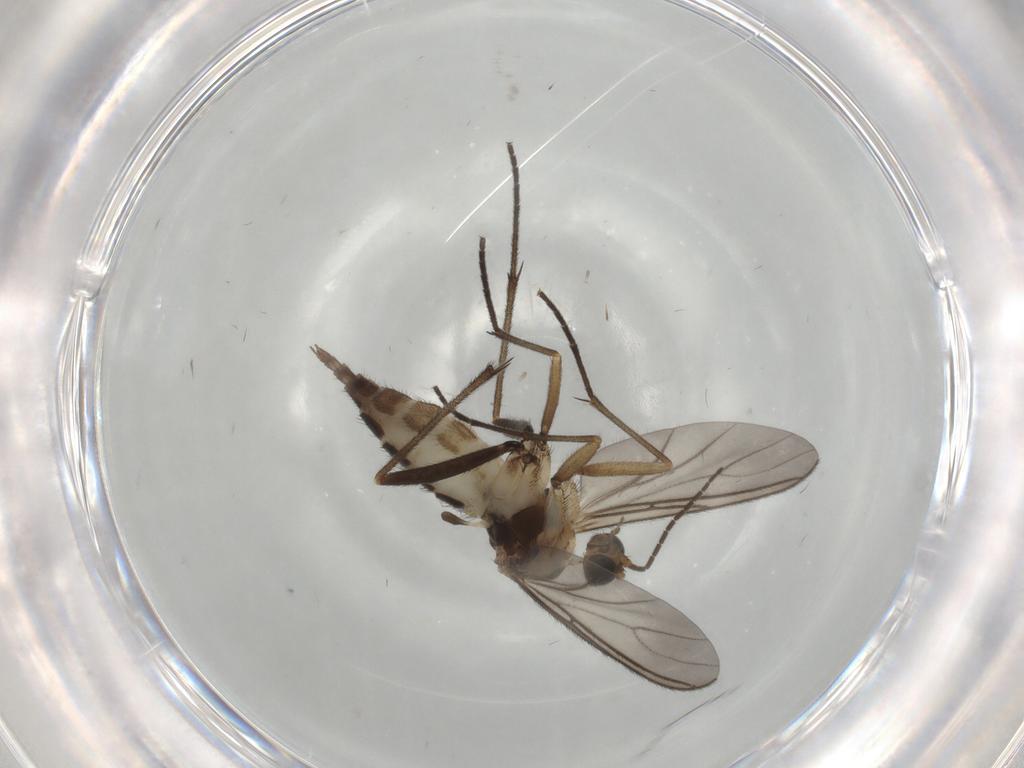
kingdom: Animalia
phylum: Arthropoda
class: Insecta
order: Diptera
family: Sciaridae
